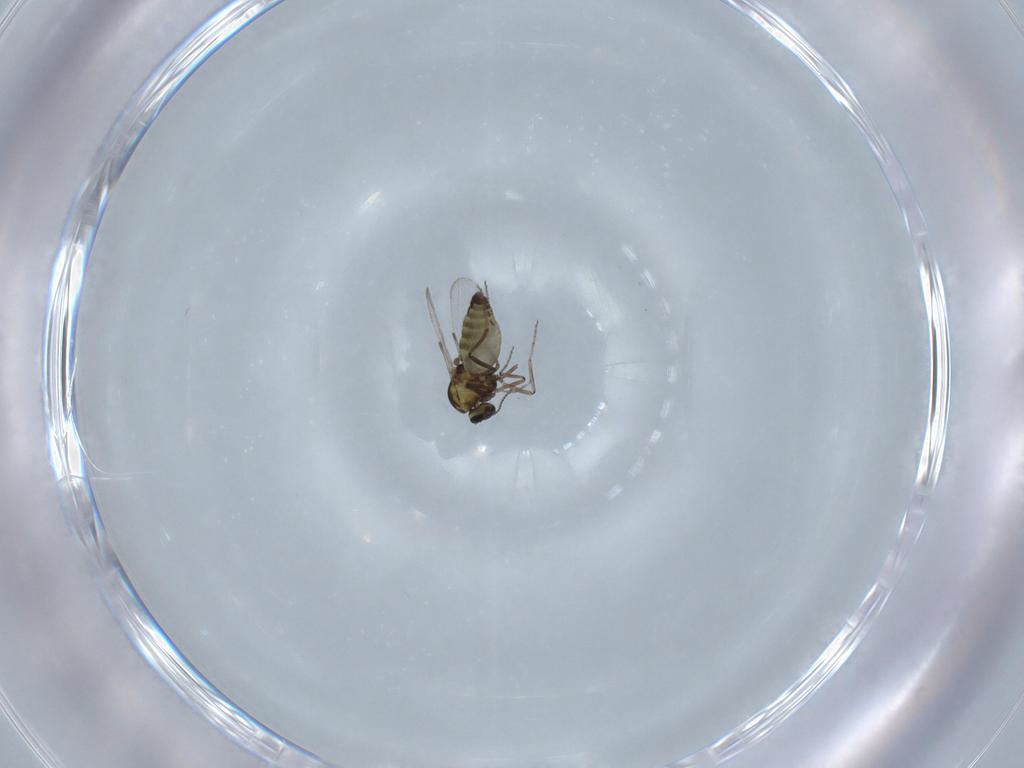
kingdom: Animalia
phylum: Arthropoda
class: Insecta
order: Diptera
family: Ceratopogonidae
